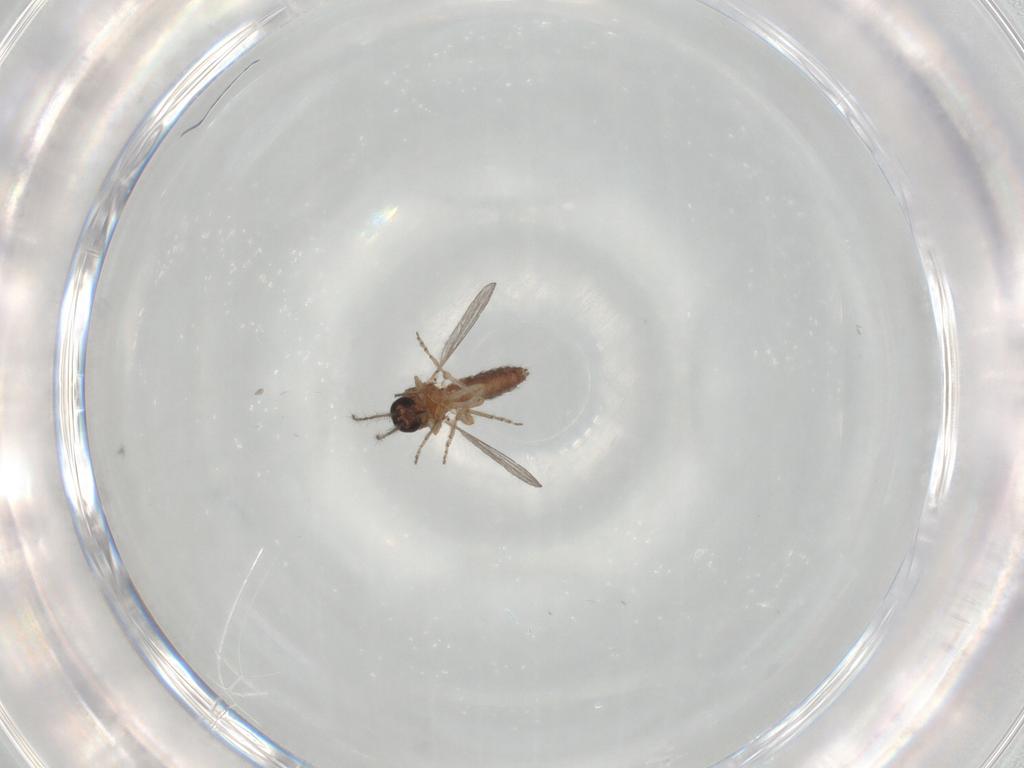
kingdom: Animalia
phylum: Arthropoda
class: Insecta
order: Diptera
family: Ceratopogonidae
